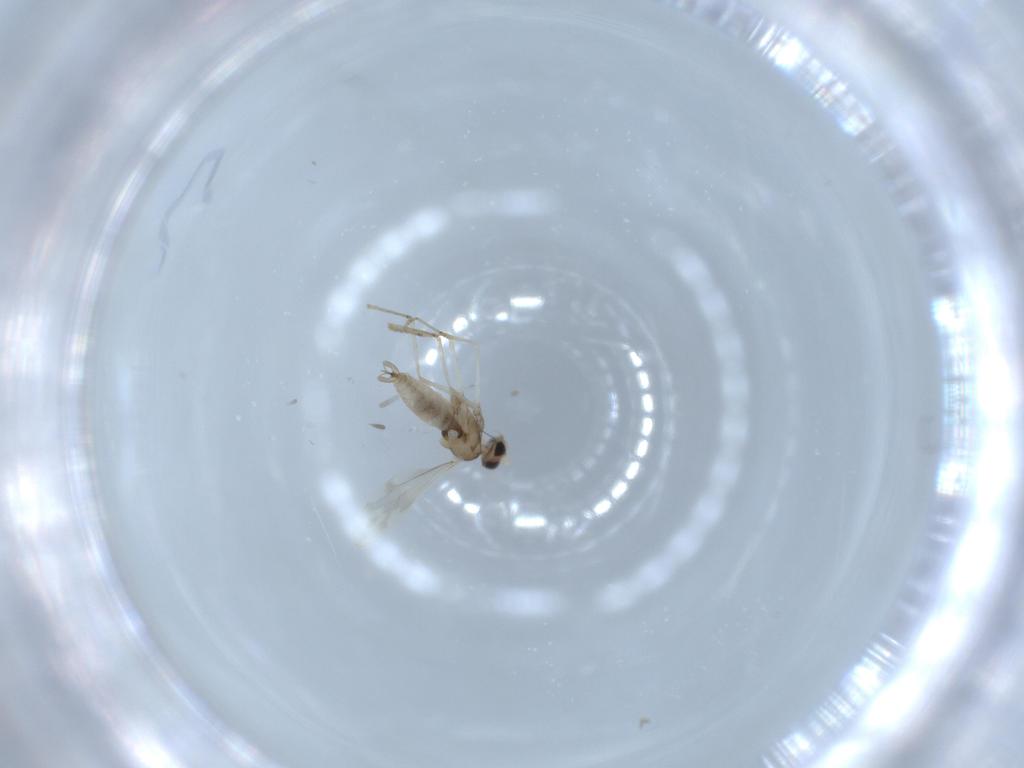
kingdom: Animalia
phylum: Arthropoda
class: Insecta
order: Diptera
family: Cecidomyiidae
